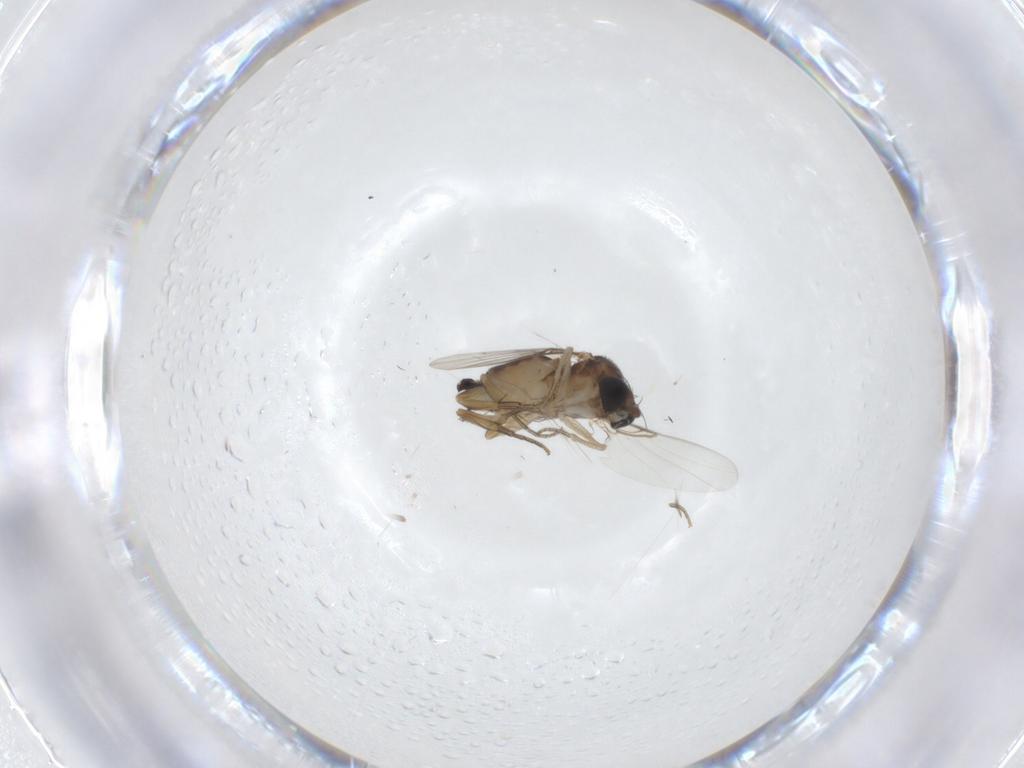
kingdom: Animalia
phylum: Arthropoda
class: Insecta
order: Diptera
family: Phoridae
